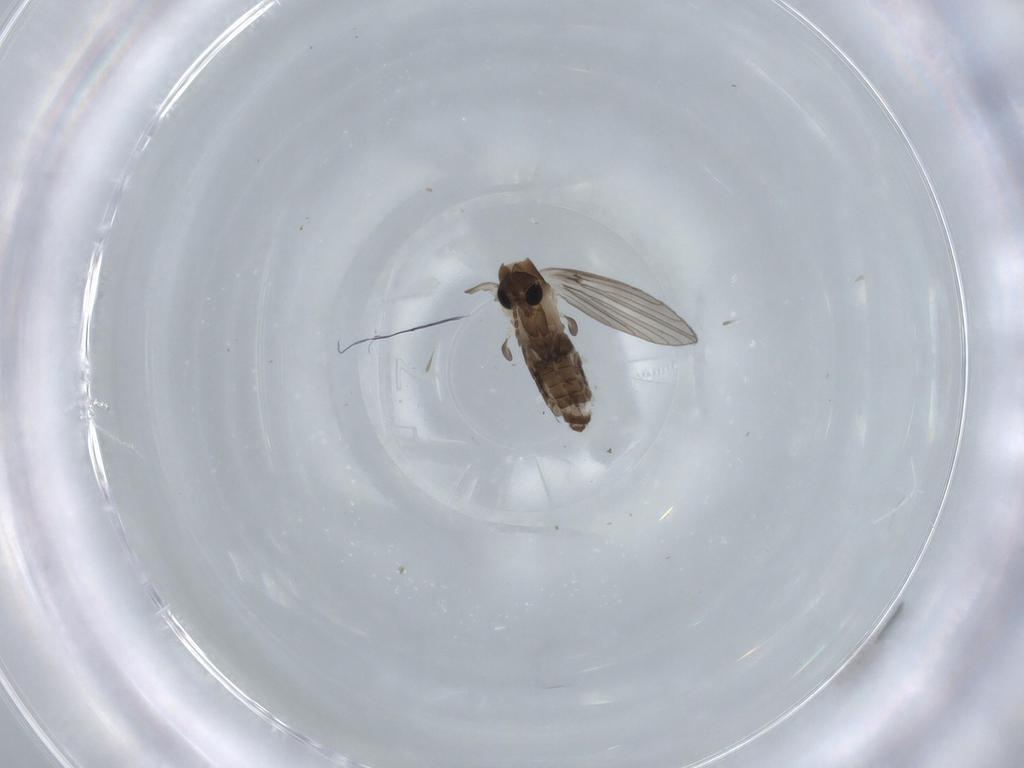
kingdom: Animalia
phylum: Arthropoda
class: Insecta
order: Diptera
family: Psychodidae
